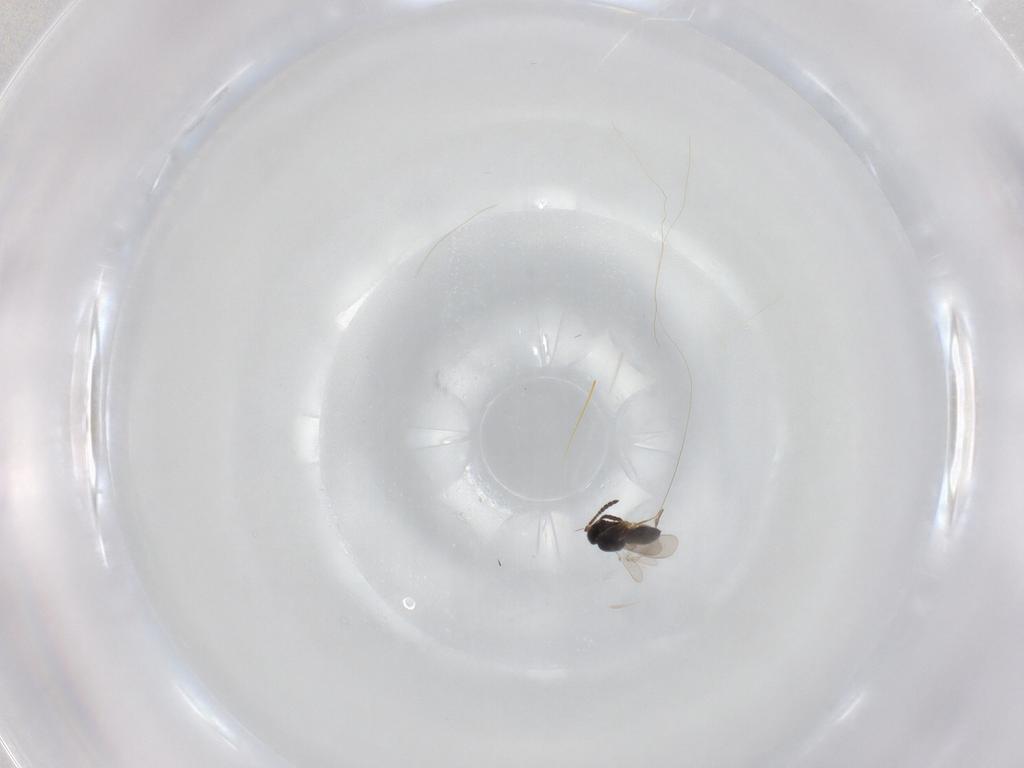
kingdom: Animalia
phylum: Arthropoda
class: Insecta
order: Hymenoptera
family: Scelionidae
